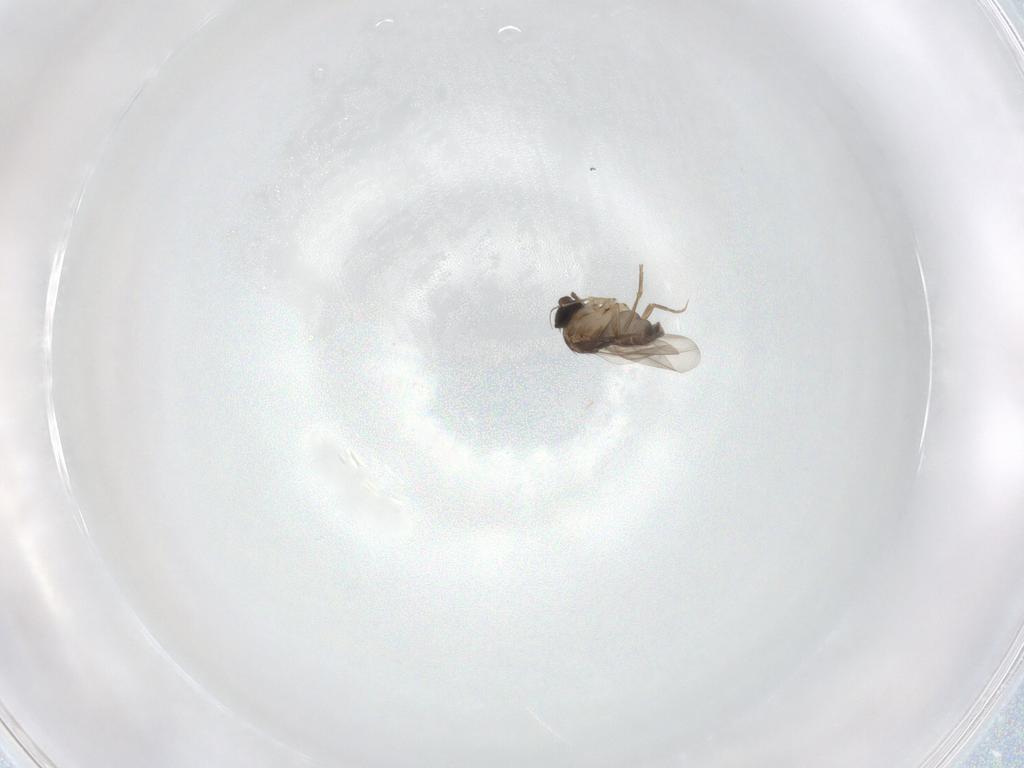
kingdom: Animalia
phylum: Arthropoda
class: Insecta
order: Diptera
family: Phoridae
